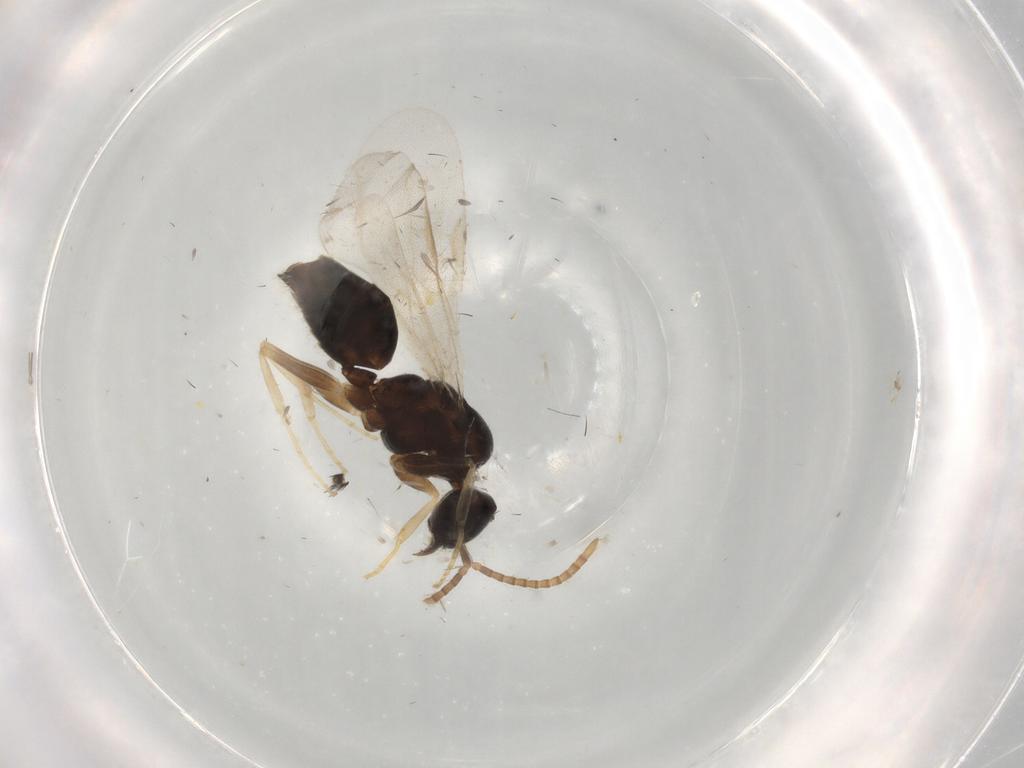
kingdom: Animalia
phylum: Arthropoda
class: Insecta
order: Hymenoptera
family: Formicidae
